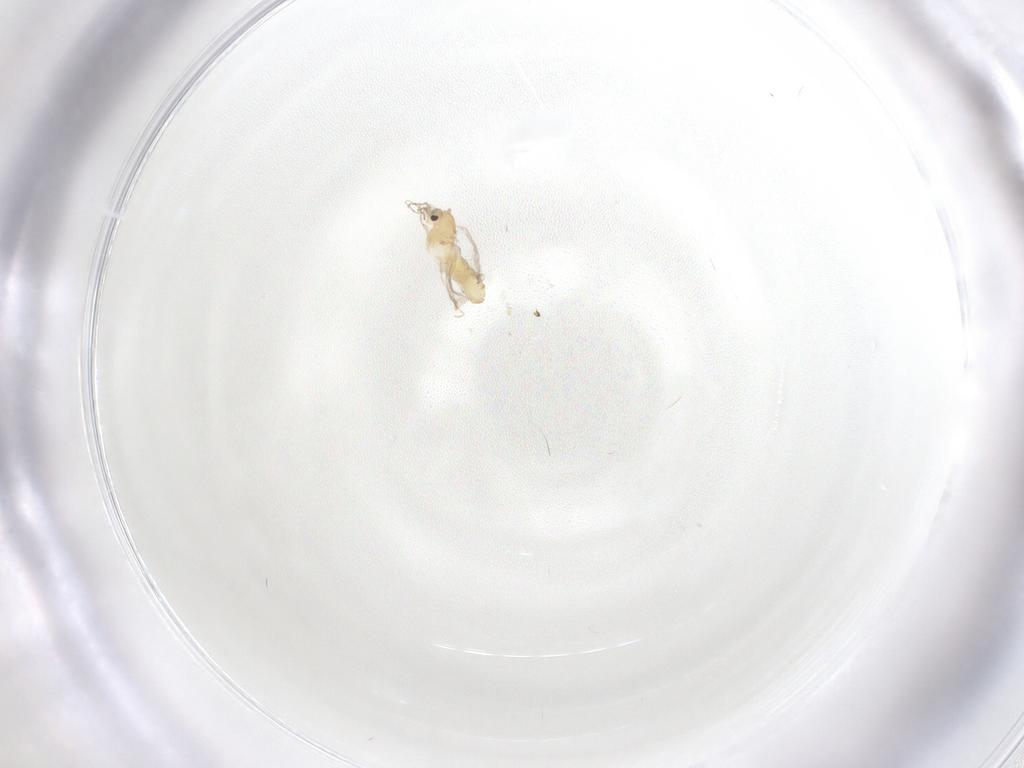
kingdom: Animalia
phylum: Arthropoda
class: Insecta
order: Diptera
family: Chironomidae
